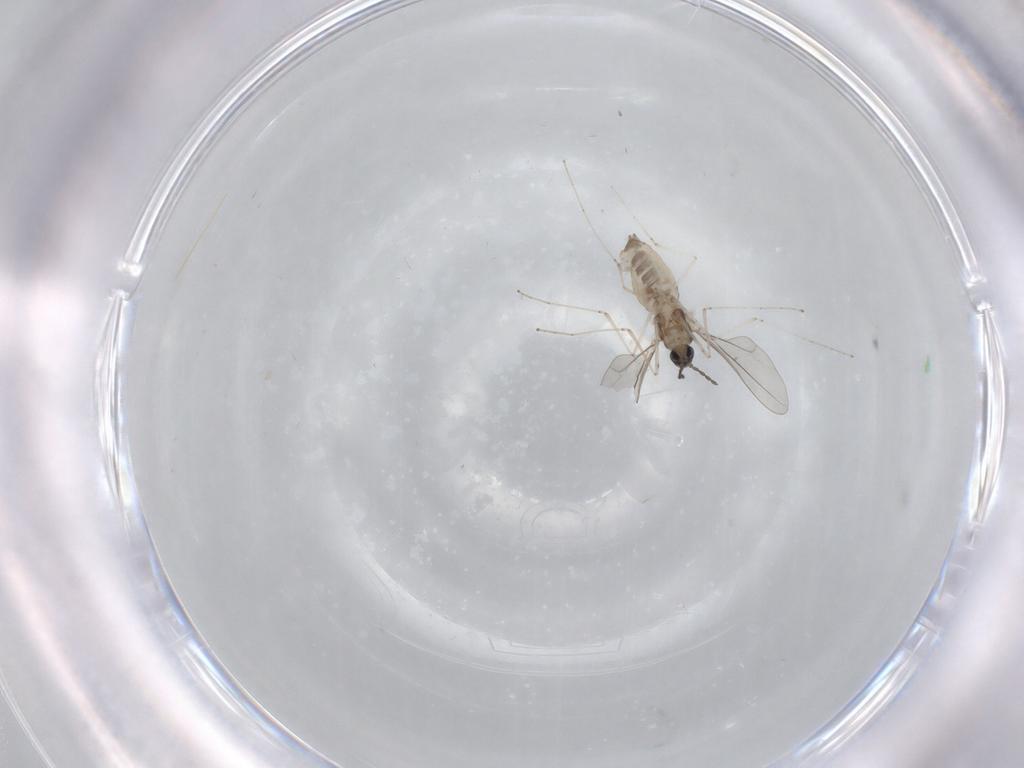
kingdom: Animalia
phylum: Arthropoda
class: Insecta
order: Diptera
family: Cecidomyiidae
